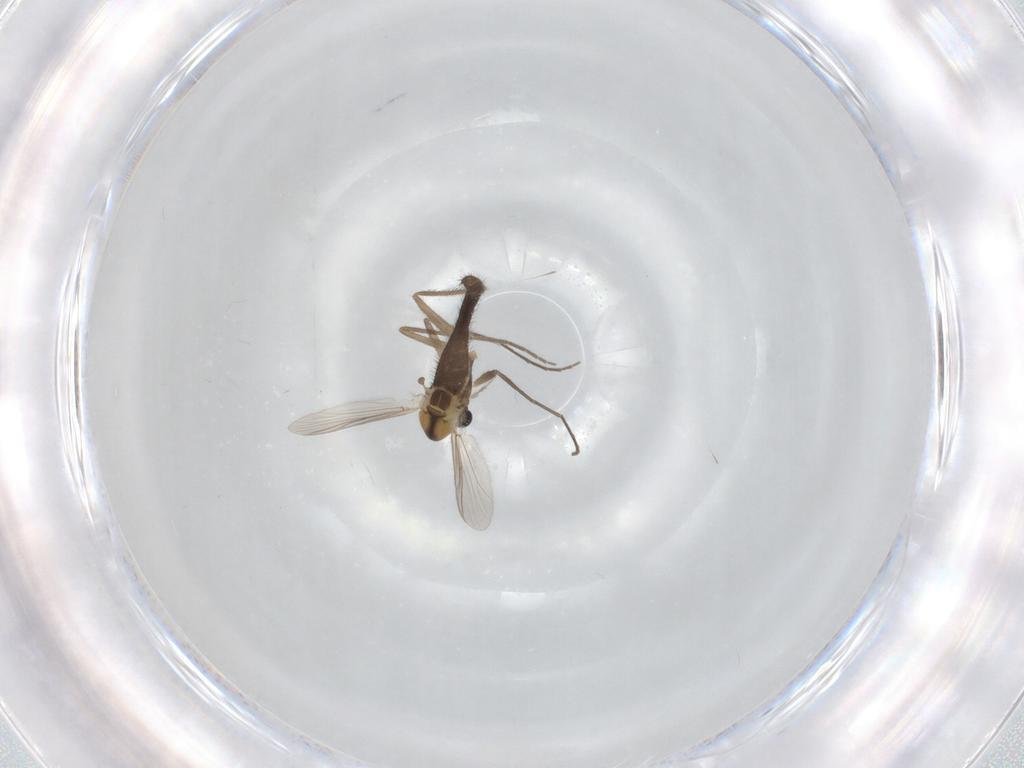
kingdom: Animalia
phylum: Arthropoda
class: Insecta
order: Diptera
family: Chironomidae
